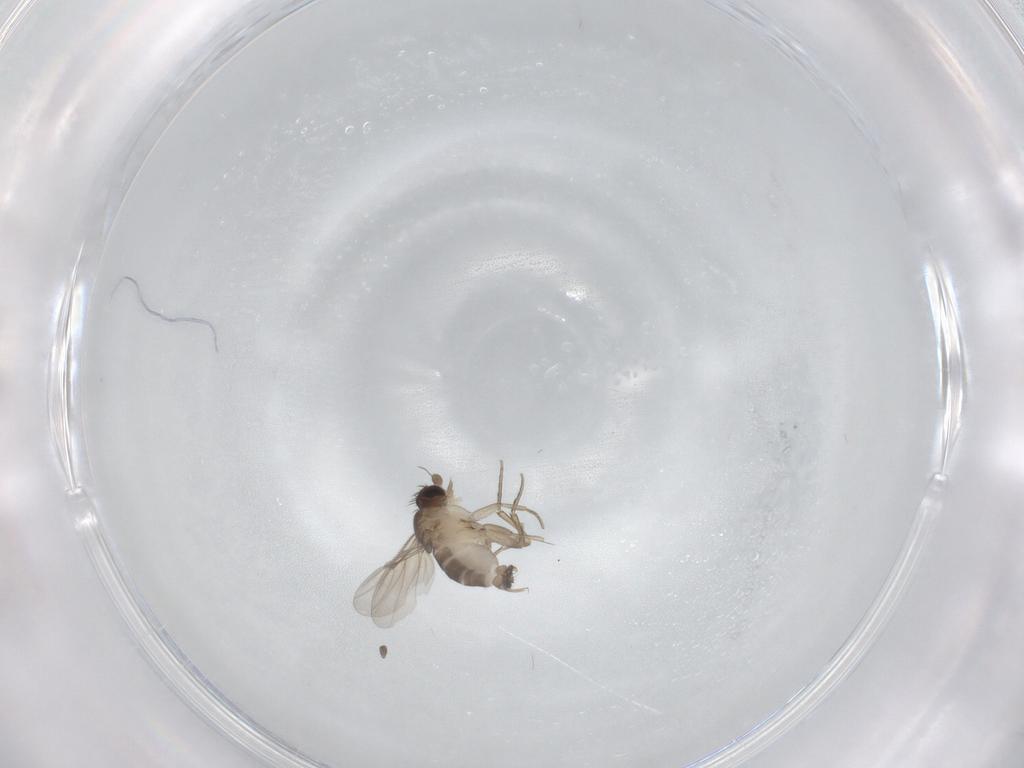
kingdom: Animalia
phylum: Arthropoda
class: Insecta
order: Diptera
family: Phoridae
